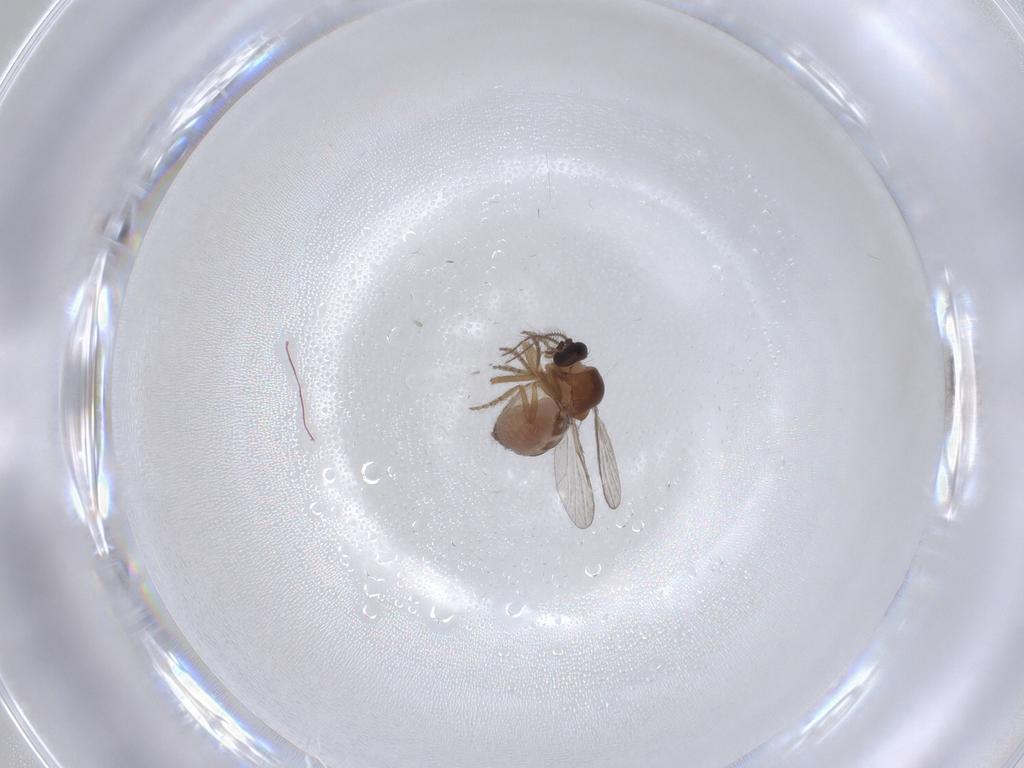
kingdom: Animalia
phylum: Arthropoda
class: Insecta
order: Diptera
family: Ceratopogonidae
